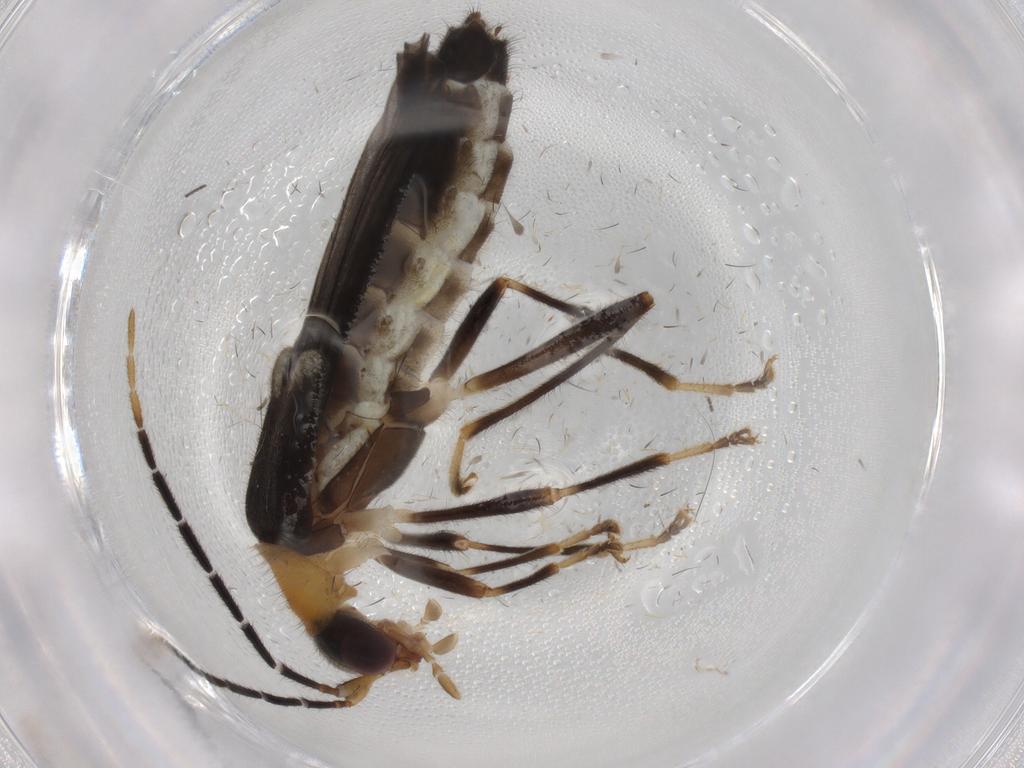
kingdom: Animalia
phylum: Arthropoda
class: Insecta
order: Coleoptera
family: Cantharidae
